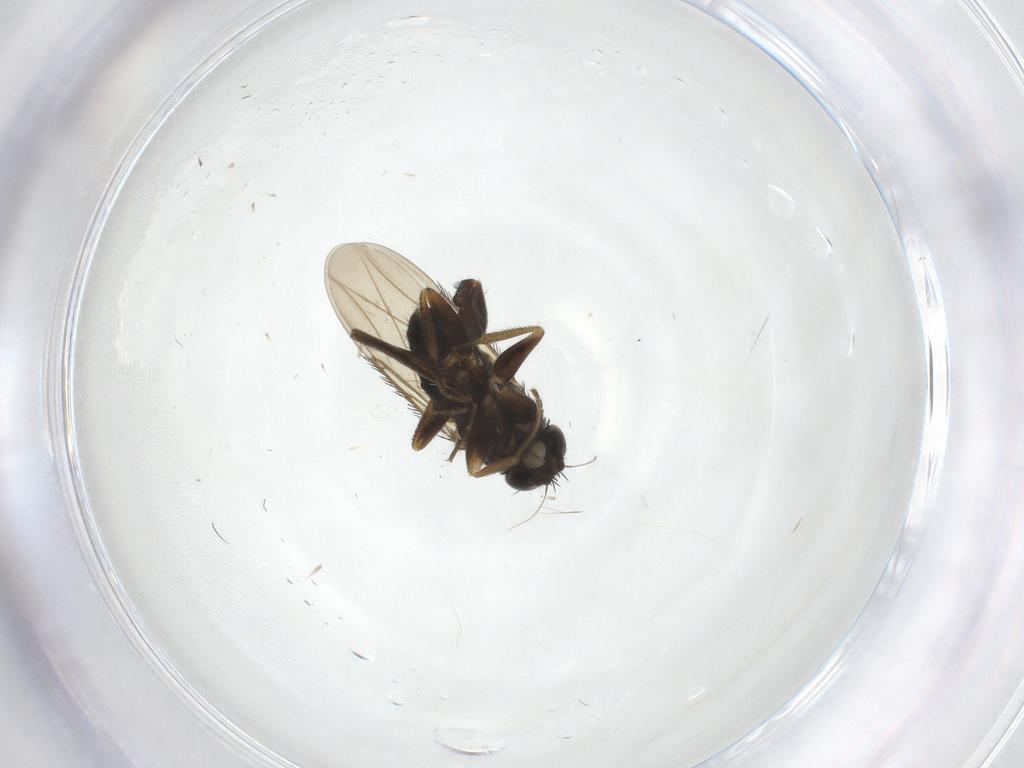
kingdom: Animalia
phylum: Arthropoda
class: Insecta
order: Diptera
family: Phoridae
